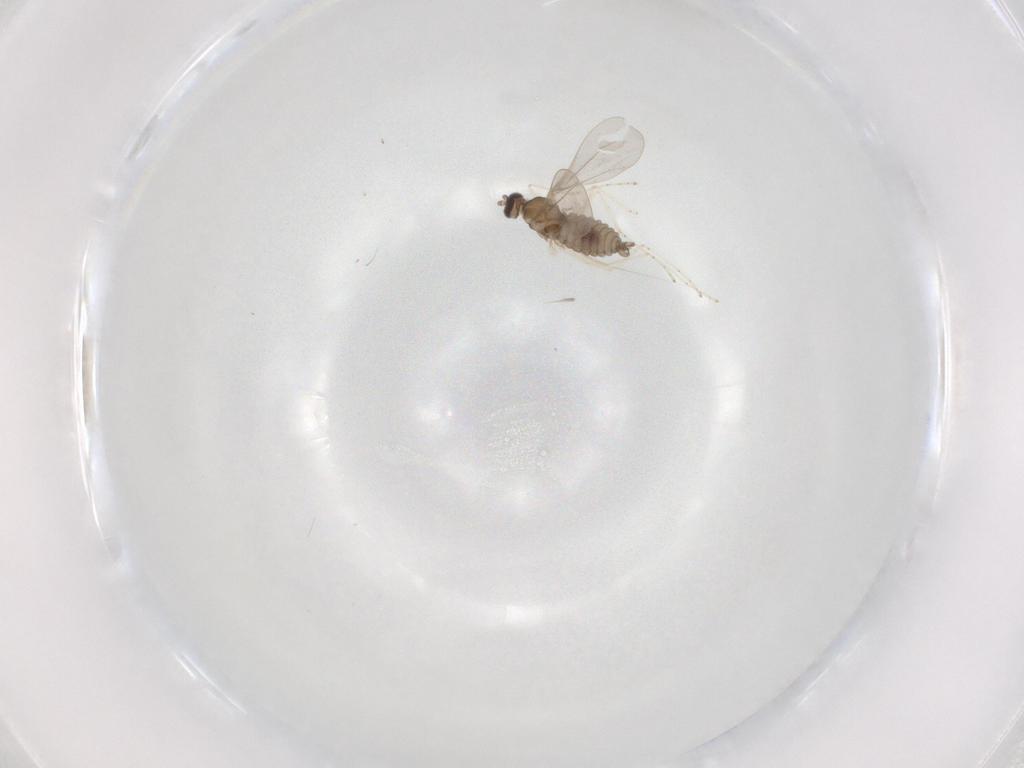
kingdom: Animalia
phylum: Arthropoda
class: Insecta
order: Diptera
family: Cecidomyiidae
